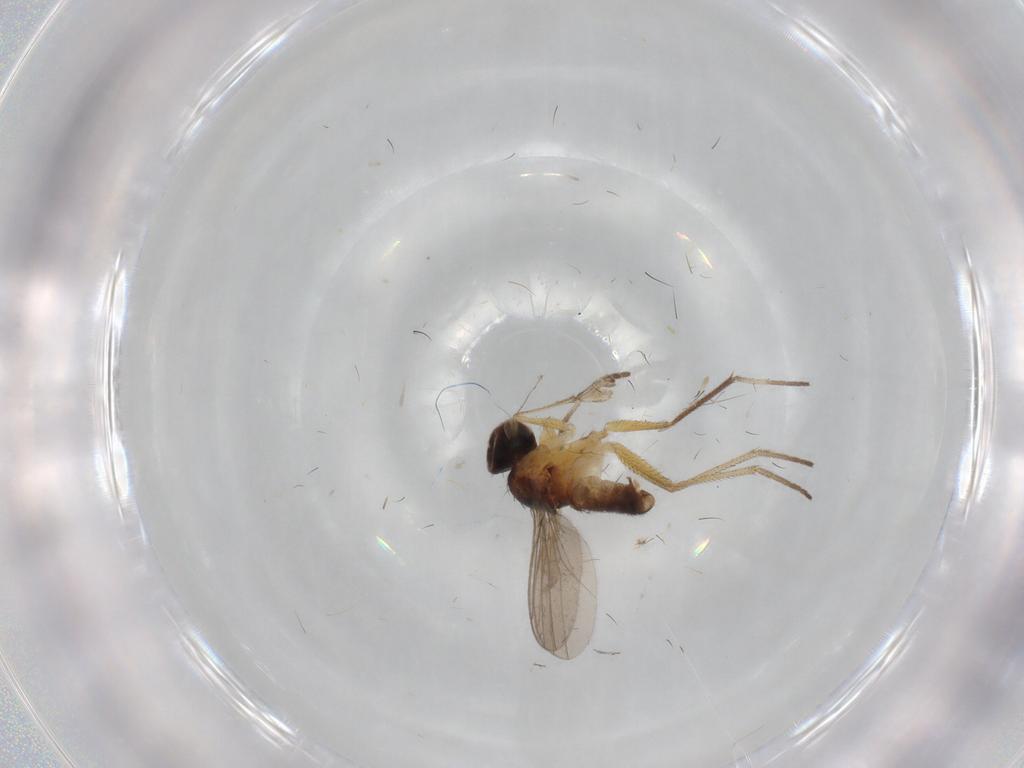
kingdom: Animalia
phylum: Arthropoda
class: Insecta
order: Diptera
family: Dolichopodidae
